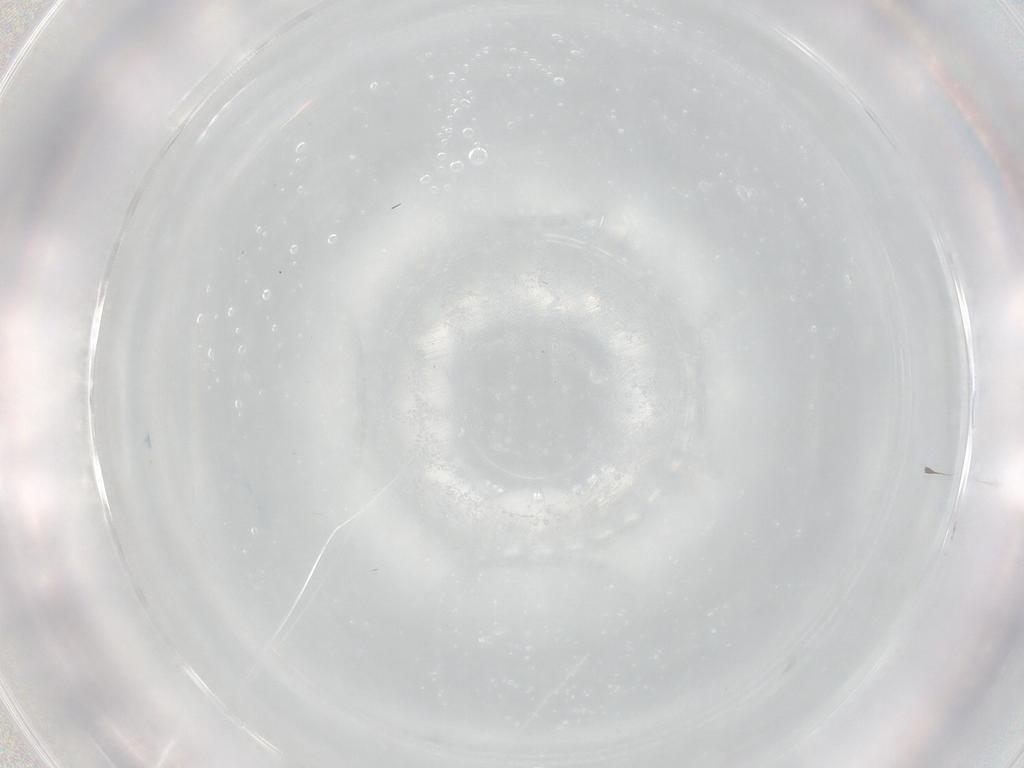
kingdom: Animalia
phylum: Arthropoda
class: Insecta
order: Diptera
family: Tabanidae
